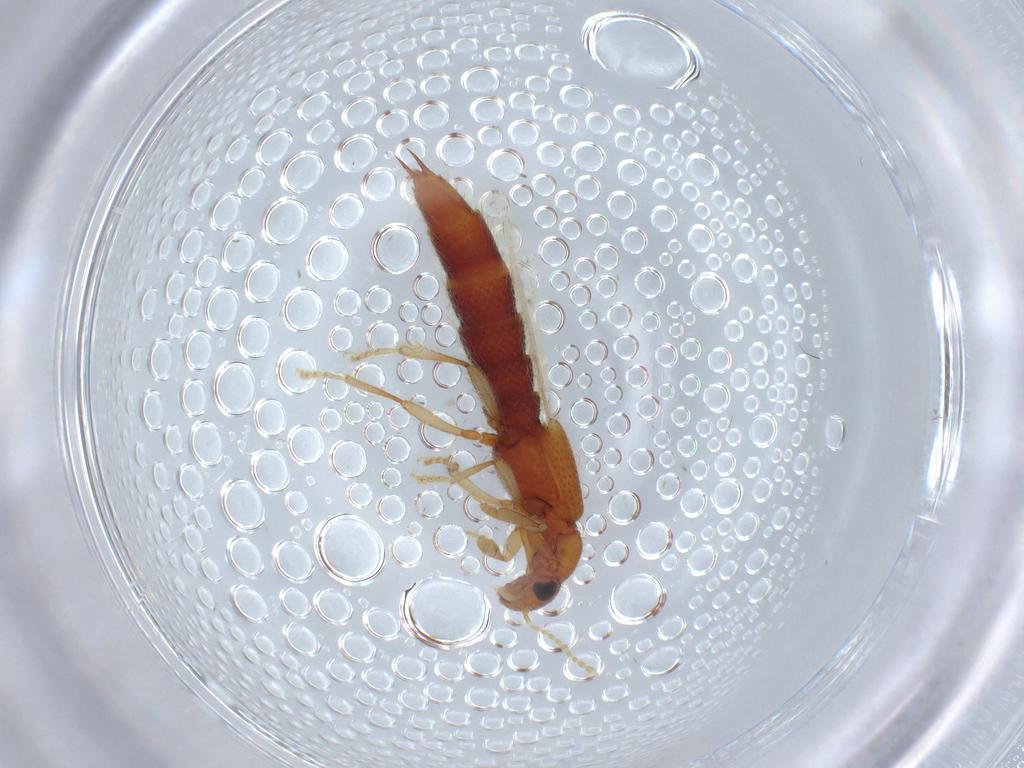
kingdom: Animalia
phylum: Arthropoda
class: Insecta
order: Coleoptera
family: Staphylinidae
